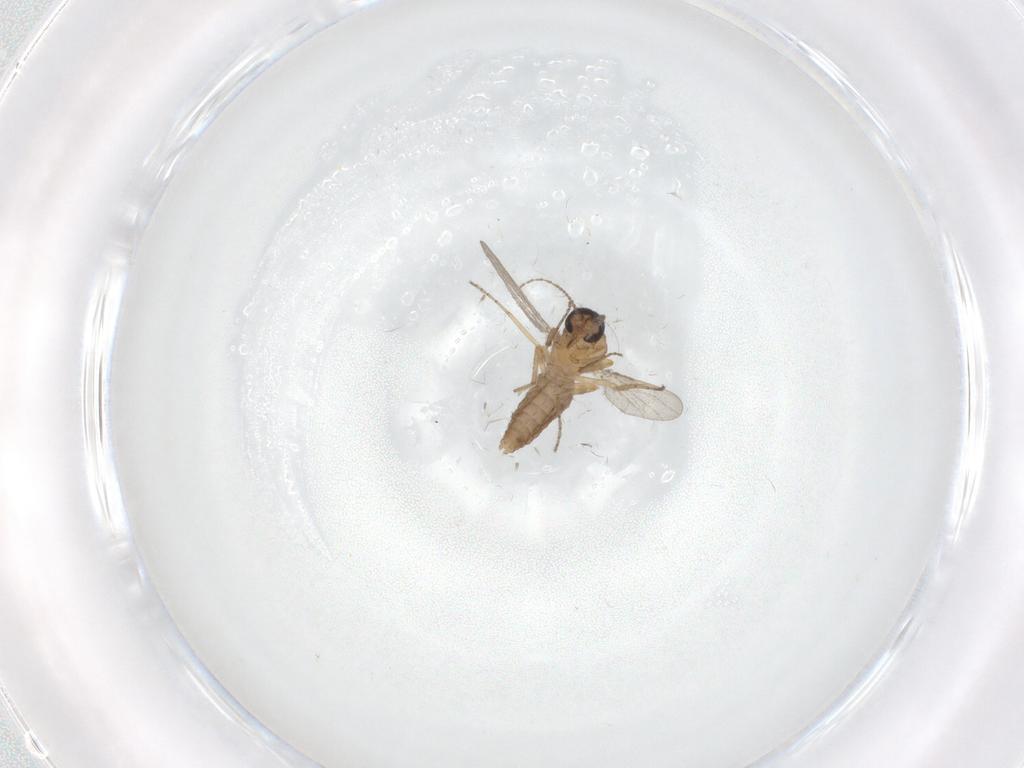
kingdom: Animalia
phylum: Arthropoda
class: Insecta
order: Diptera
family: Ceratopogonidae
